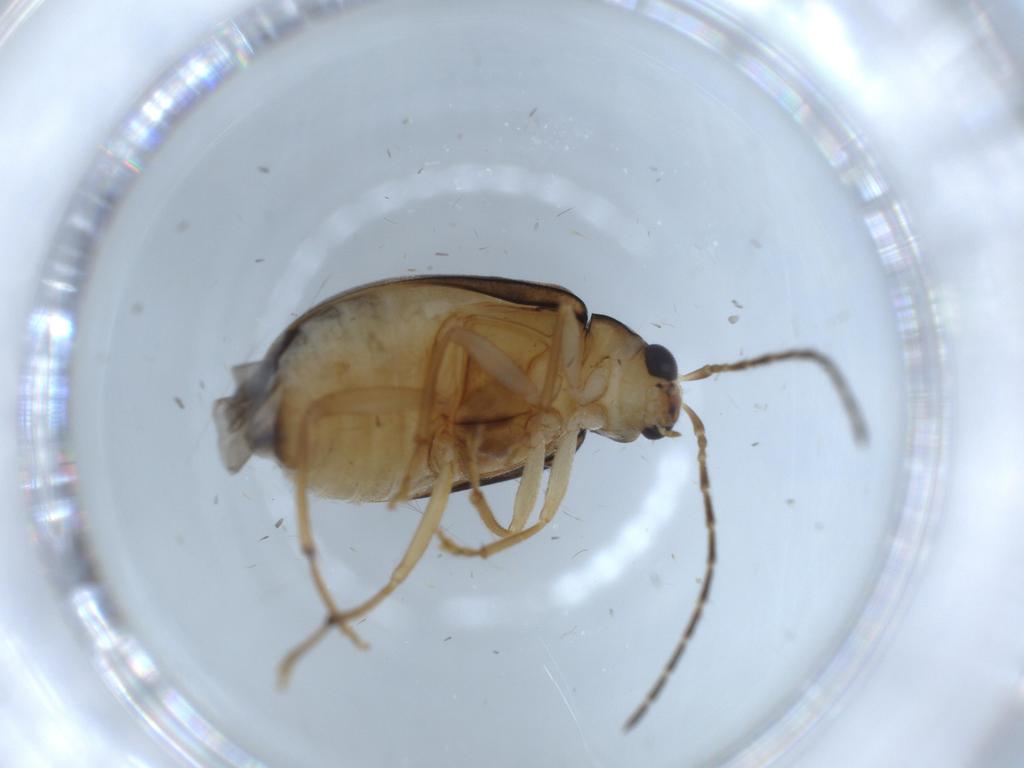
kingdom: Animalia
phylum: Arthropoda
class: Insecta
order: Coleoptera
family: Chrysomelidae
